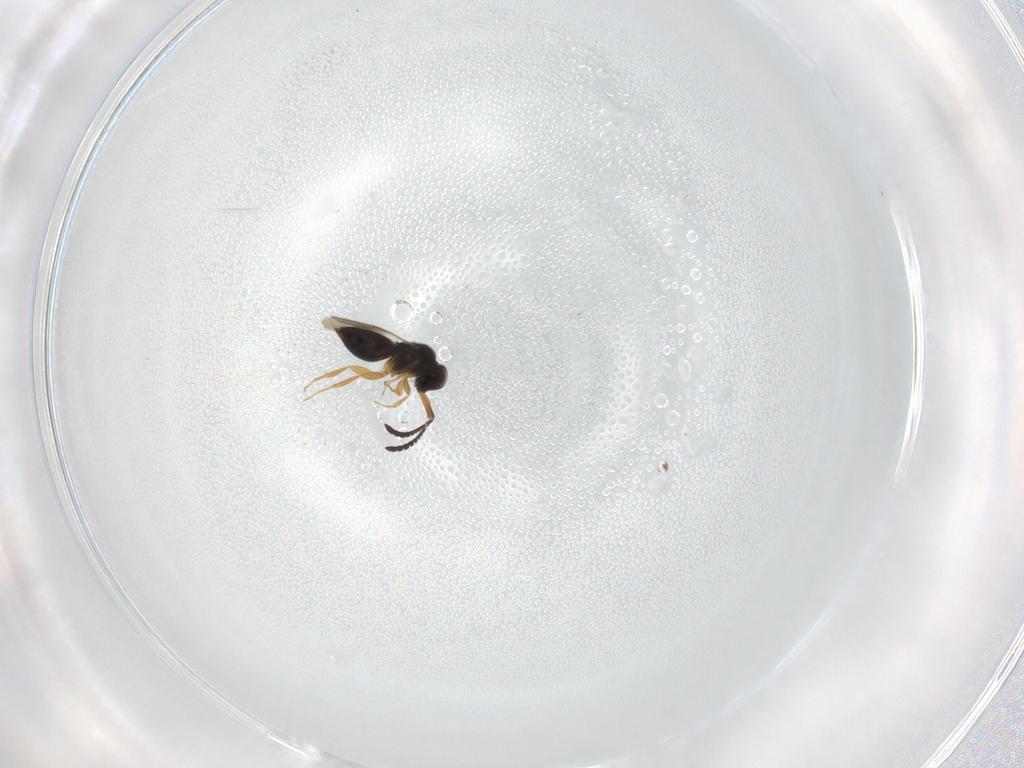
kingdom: Animalia
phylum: Arthropoda
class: Insecta
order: Hymenoptera
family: Ceraphronidae
